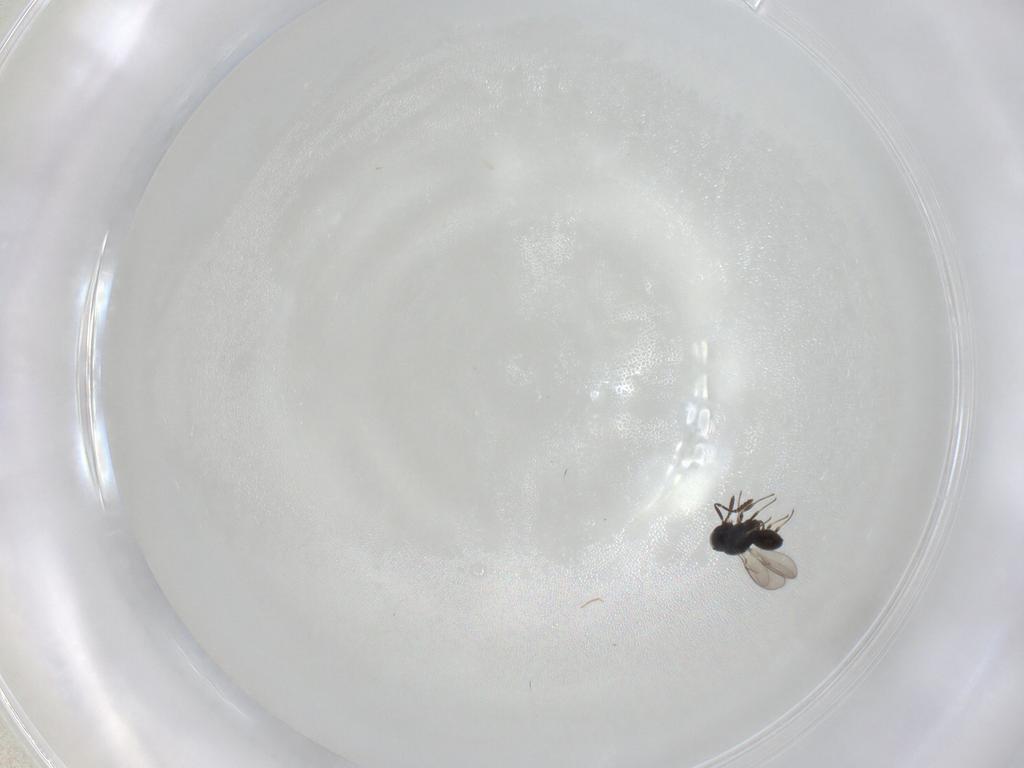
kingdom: Animalia
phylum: Arthropoda
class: Insecta
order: Hymenoptera
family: Scelionidae
